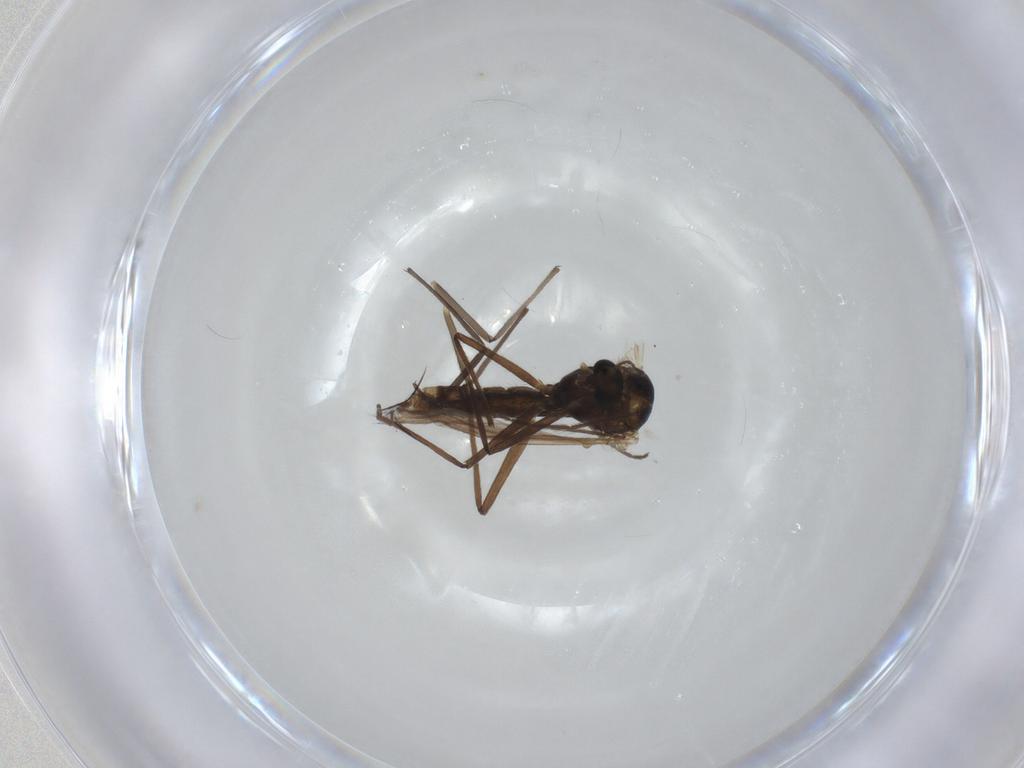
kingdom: Animalia
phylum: Arthropoda
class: Insecta
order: Diptera
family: Chironomidae
